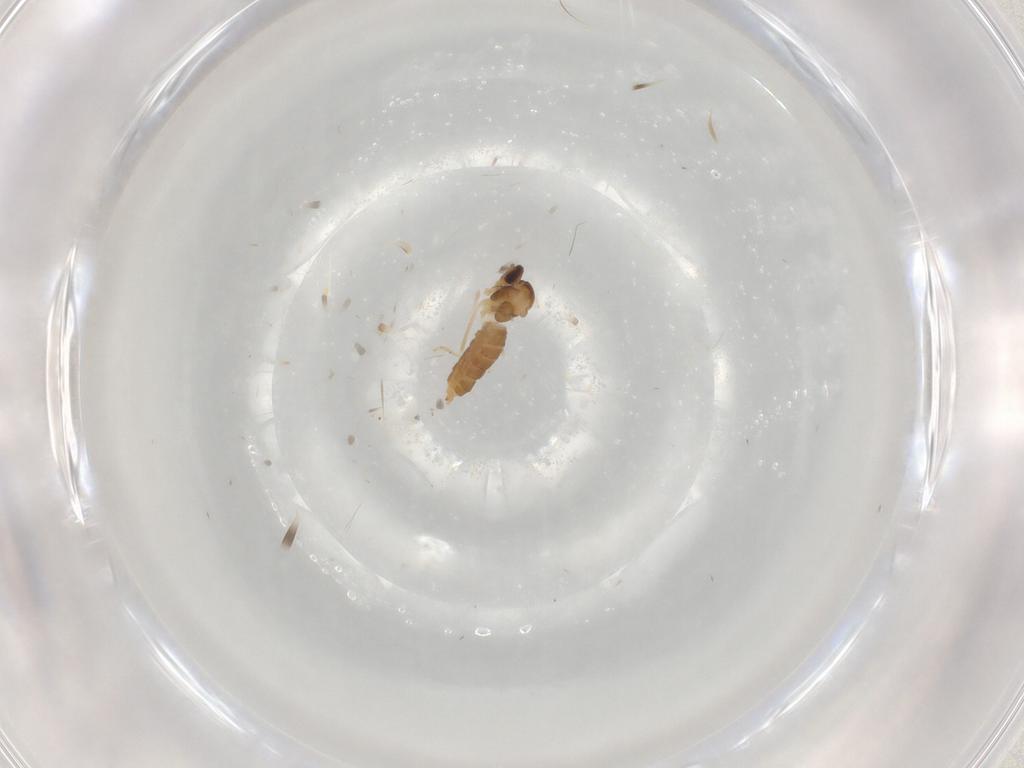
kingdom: Animalia
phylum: Arthropoda
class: Insecta
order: Diptera
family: Cecidomyiidae
